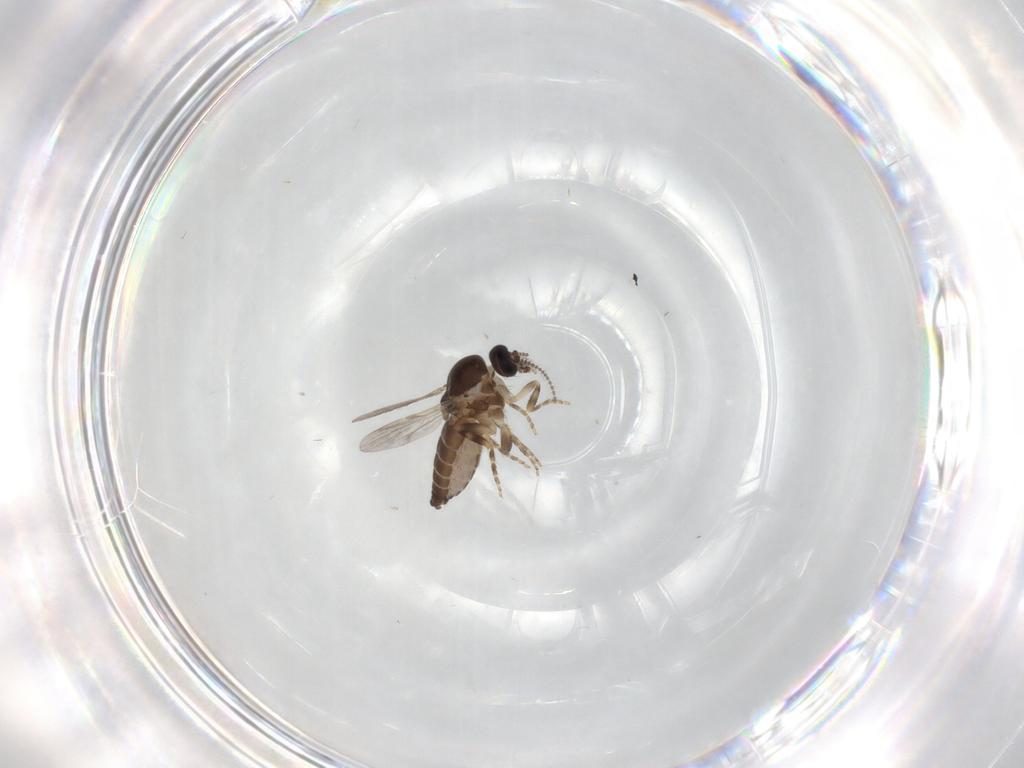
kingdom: Animalia
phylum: Arthropoda
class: Insecta
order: Diptera
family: Ceratopogonidae
